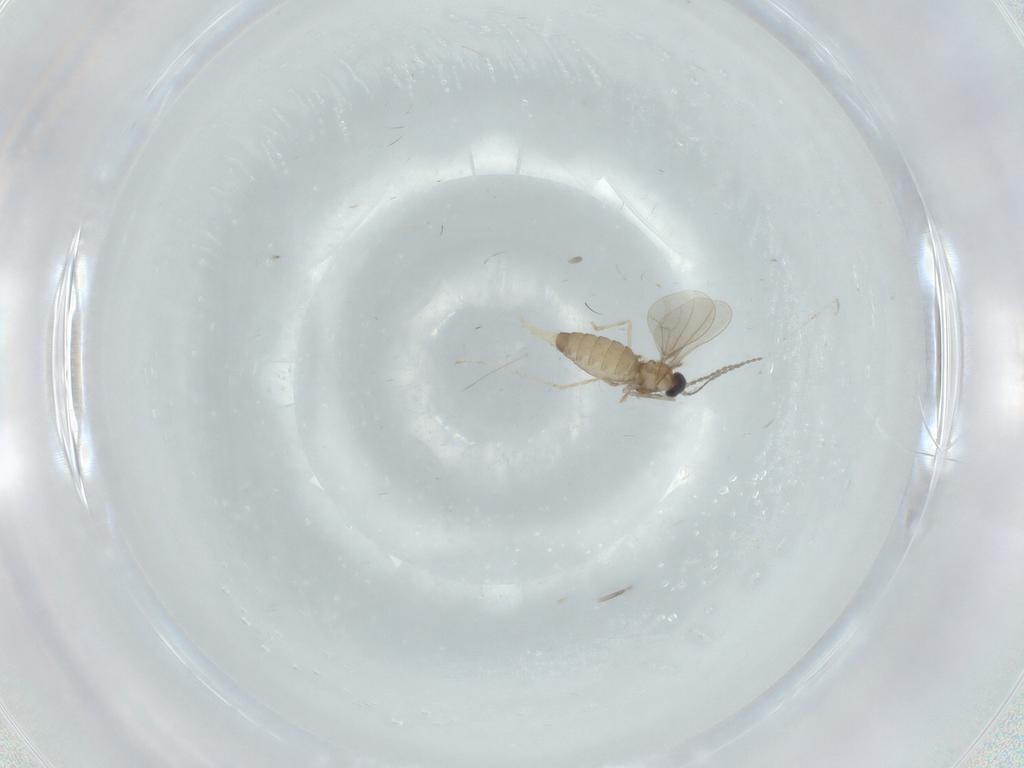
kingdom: Animalia
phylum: Arthropoda
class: Insecta
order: Diptera
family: Cecidomyiidae
